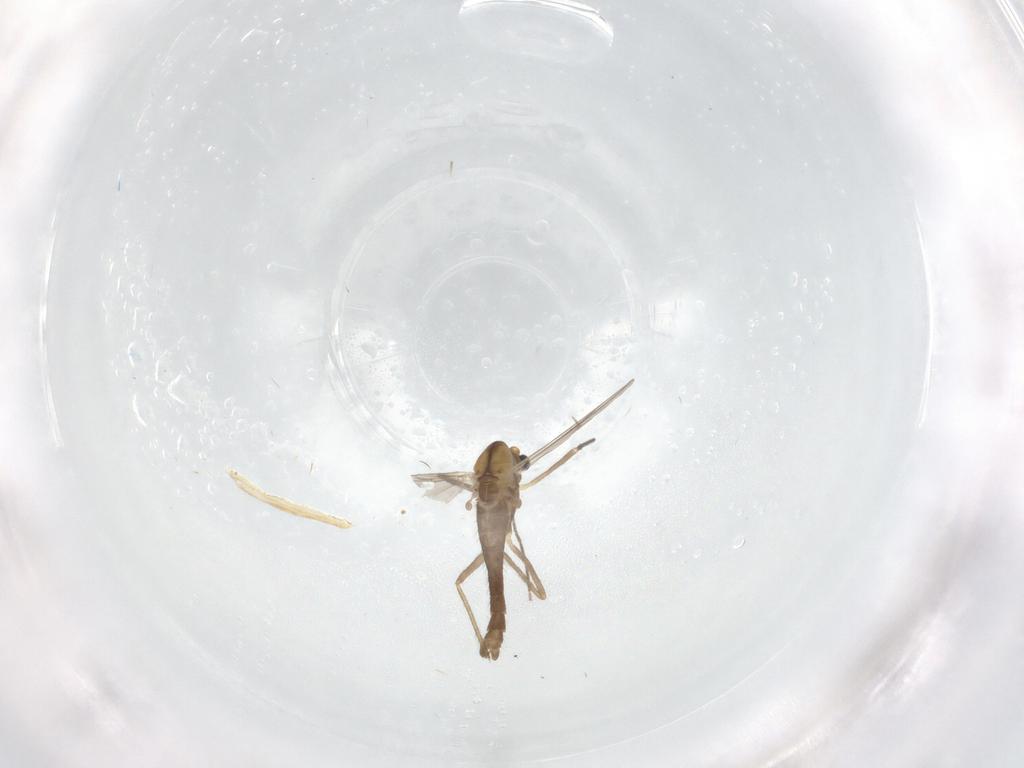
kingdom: Animalia
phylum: Arthropoda
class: Insecta
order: Diptera
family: Chironomidae
